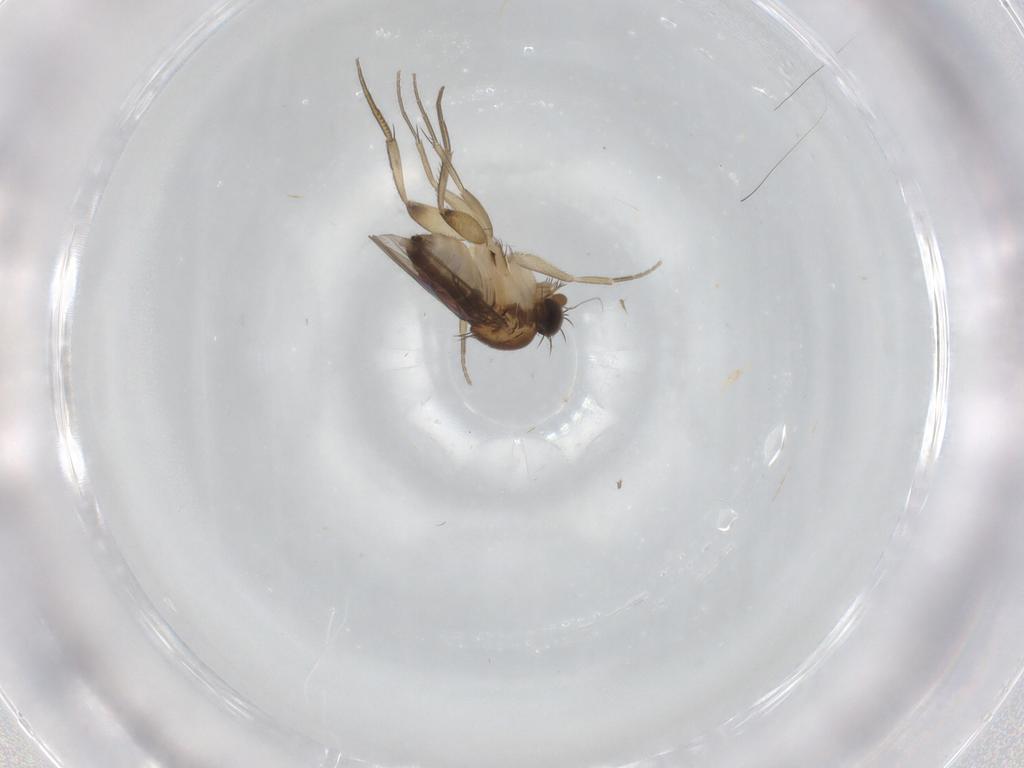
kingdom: Animalia
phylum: Arthropoda
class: Insecta
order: Diptera
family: Phoridae
